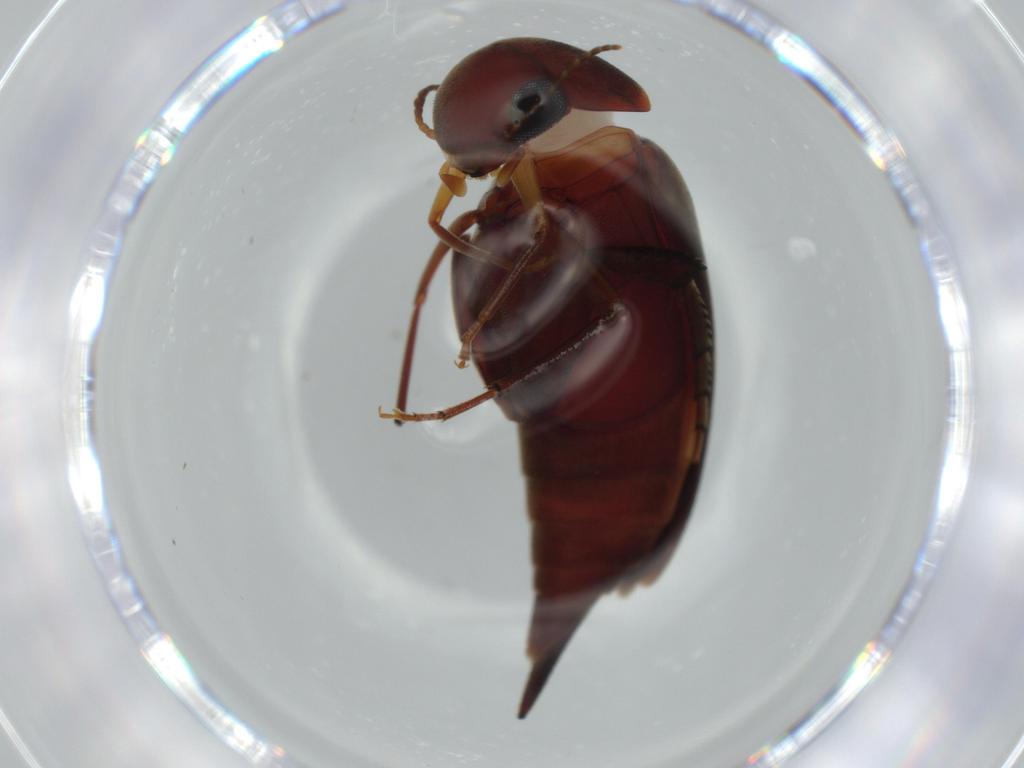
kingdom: Animalia
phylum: Arthropoda
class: Insecta
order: Coleoptera
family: Mordellidae
